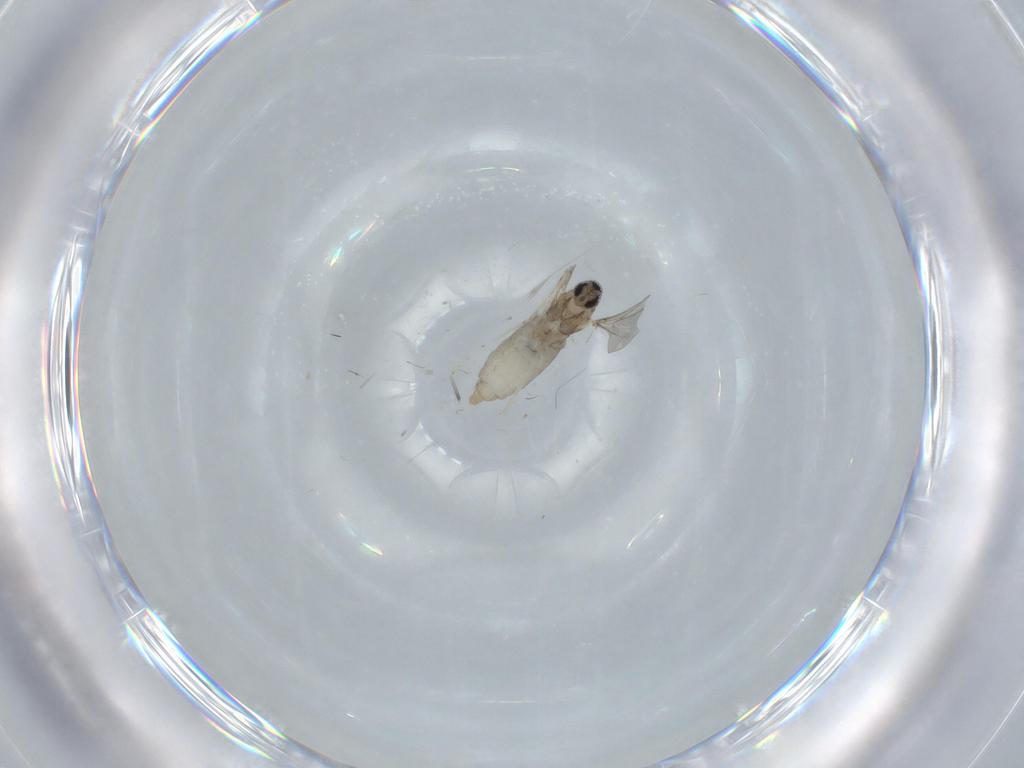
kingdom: Animalia
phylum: Arthropoda
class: Insecta
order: Diptera
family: Cecidomyiidae
